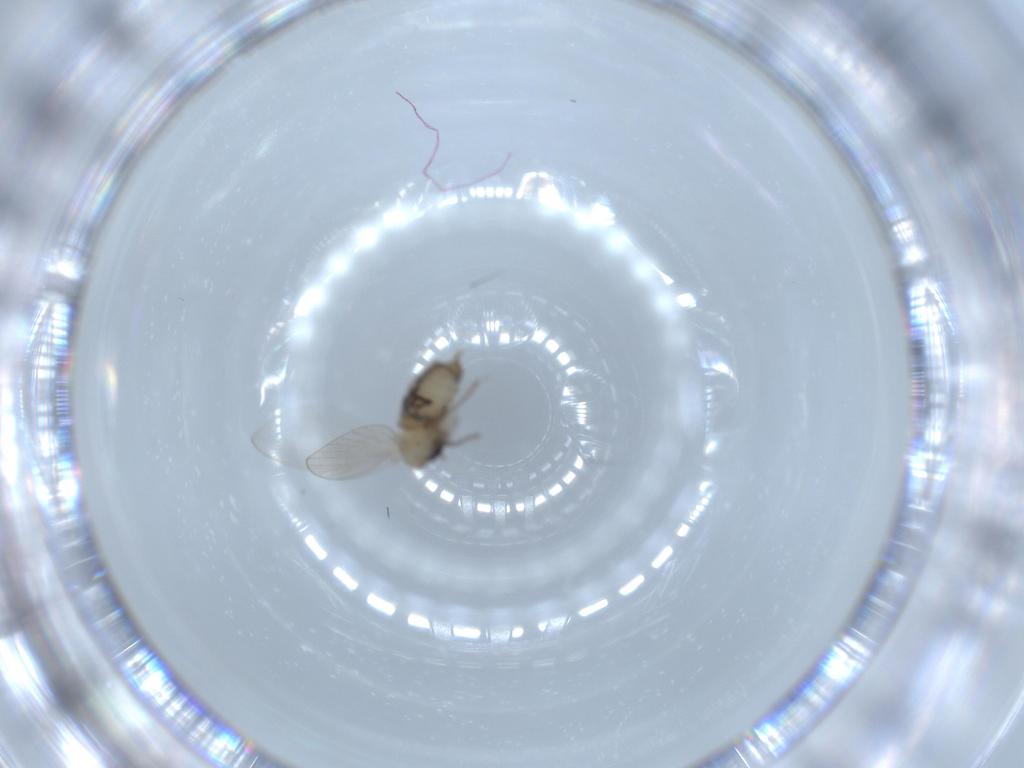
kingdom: Animalia
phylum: Arthropoda
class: Insecta
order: Diptera
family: Psychodidae
